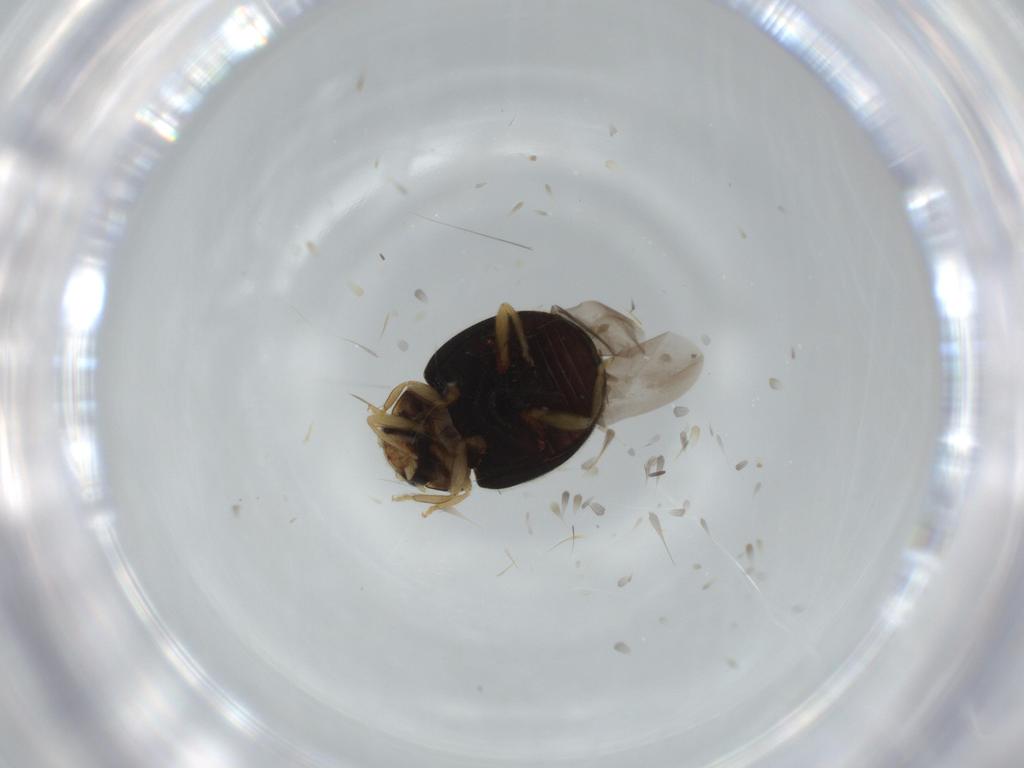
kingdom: Animalia
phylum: Arthropoda
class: Insecta
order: Coleoptera
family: Coccinellidae
